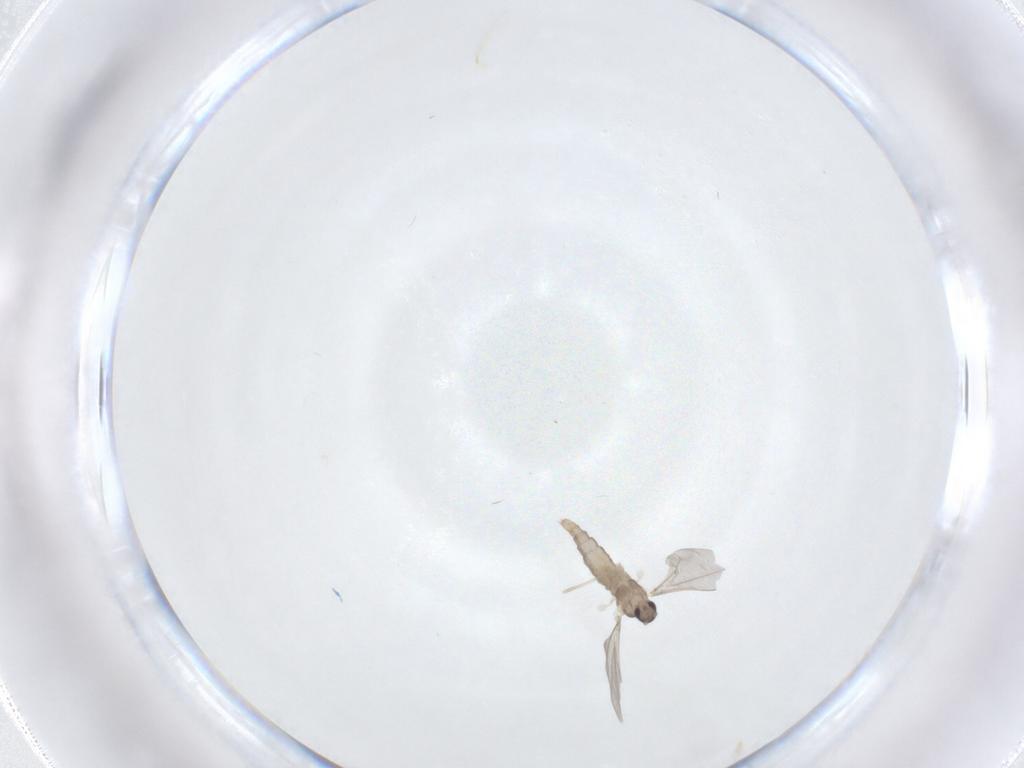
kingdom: Animalia
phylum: Arthropoda
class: Insecta
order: Diptera
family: Cecidomyiidae
